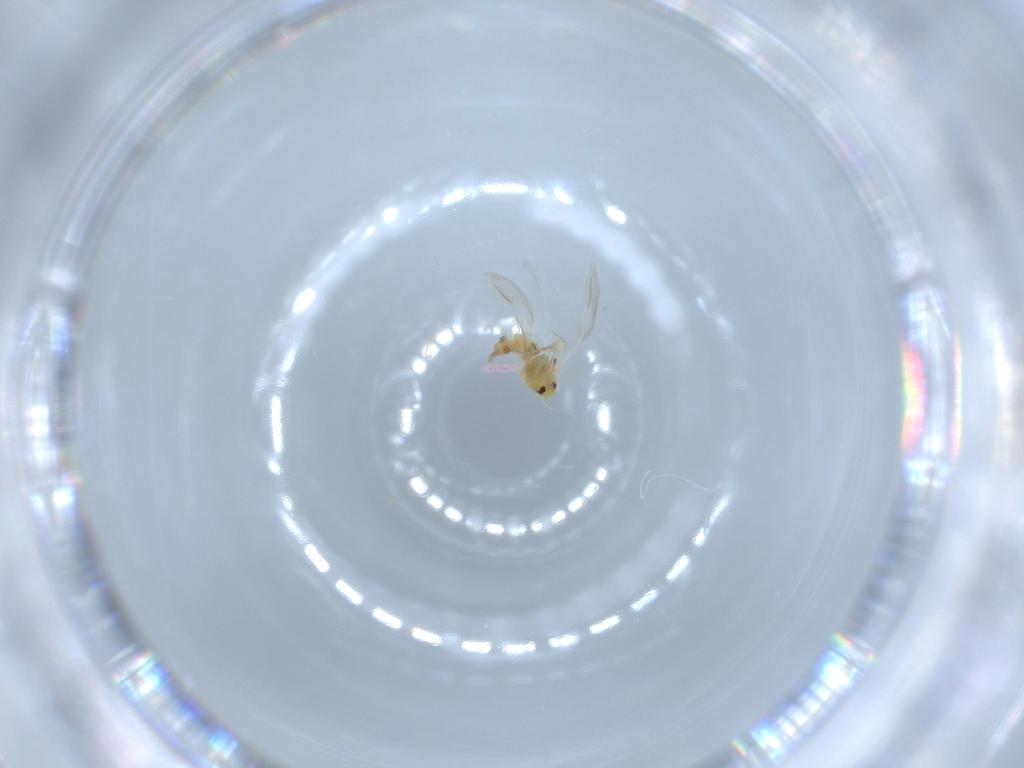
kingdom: Animalia
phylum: Arthropoda
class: Insecta
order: Hemiptera
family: Aleyrodidae
